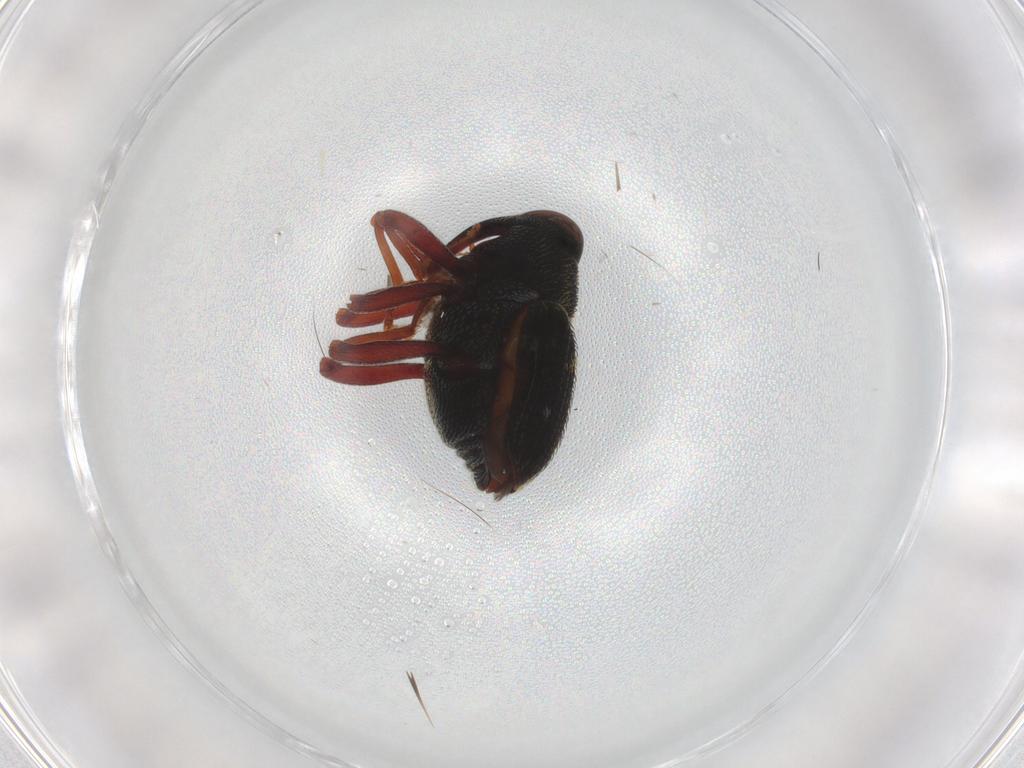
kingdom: Animalia
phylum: Arthropoda
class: Insecta
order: Coleoptera
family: Curculionidae
